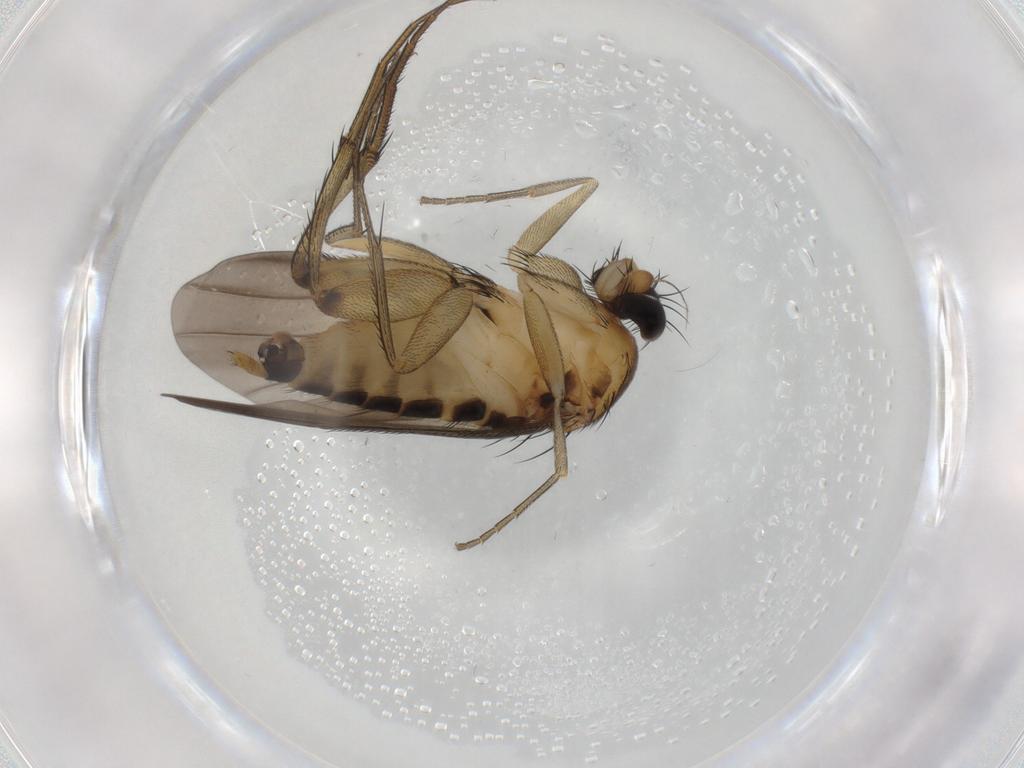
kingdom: Animalia
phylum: Arthropoda
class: Insecta
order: Diptera
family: Phoridae
